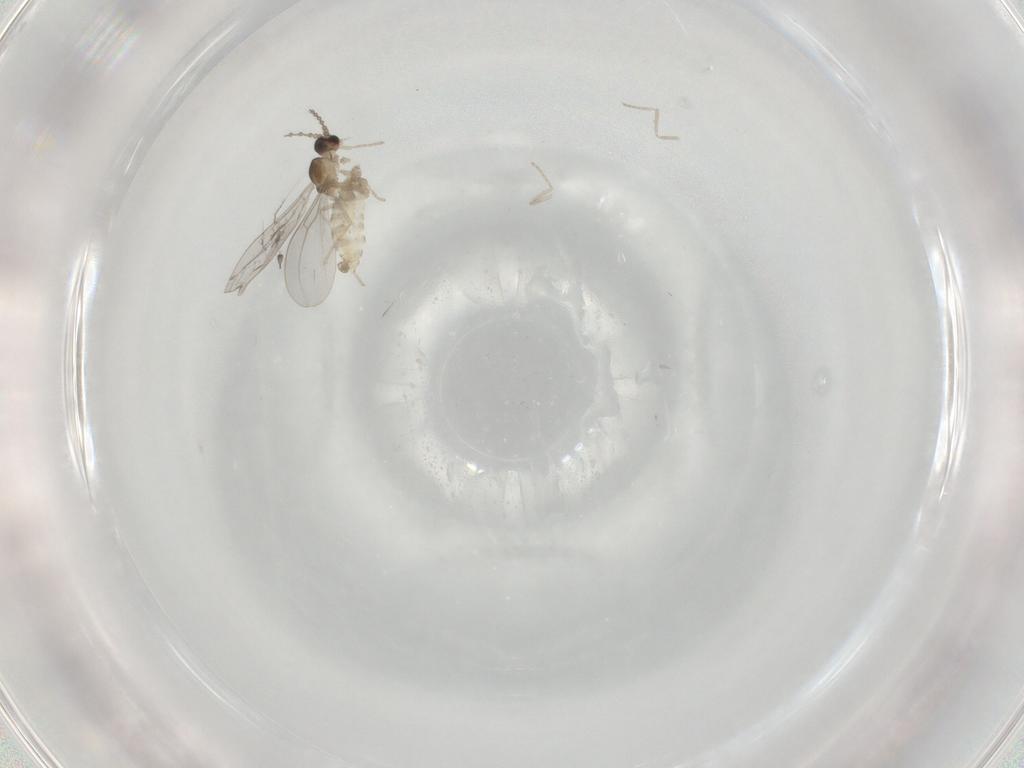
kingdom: Animalia
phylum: Arthropoda
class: Insecta
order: Diptera
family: Cecidomyiidae
